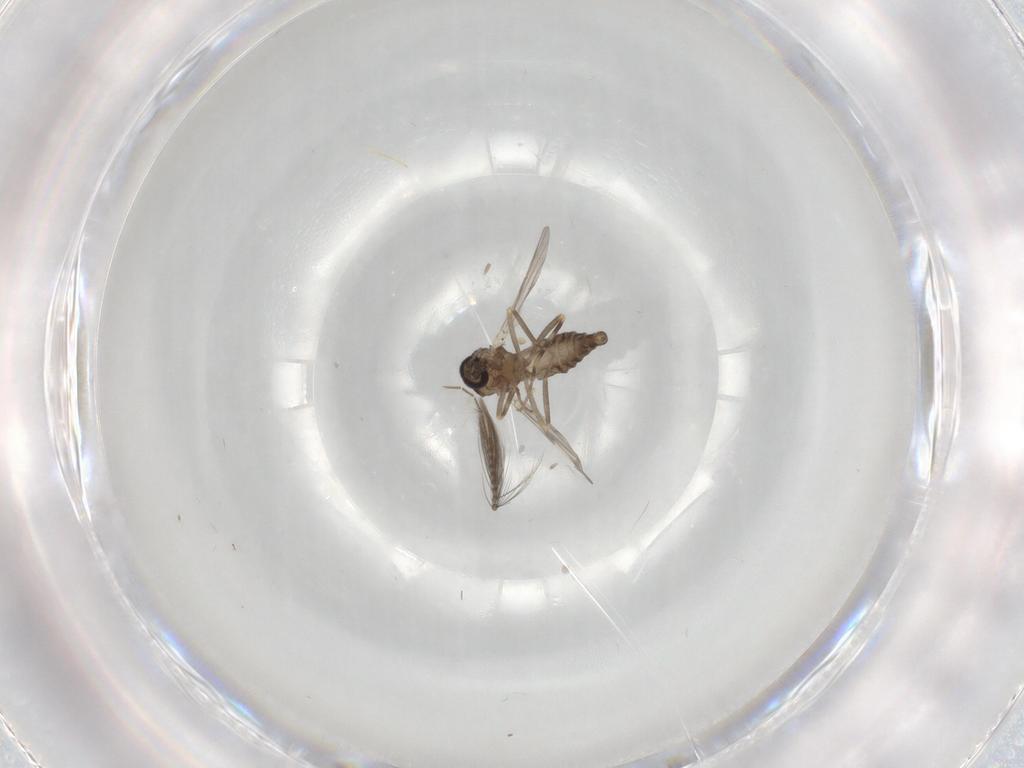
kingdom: Animalia
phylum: Arthropoda
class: Insecta
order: Diptera
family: Ceratopogonidae
